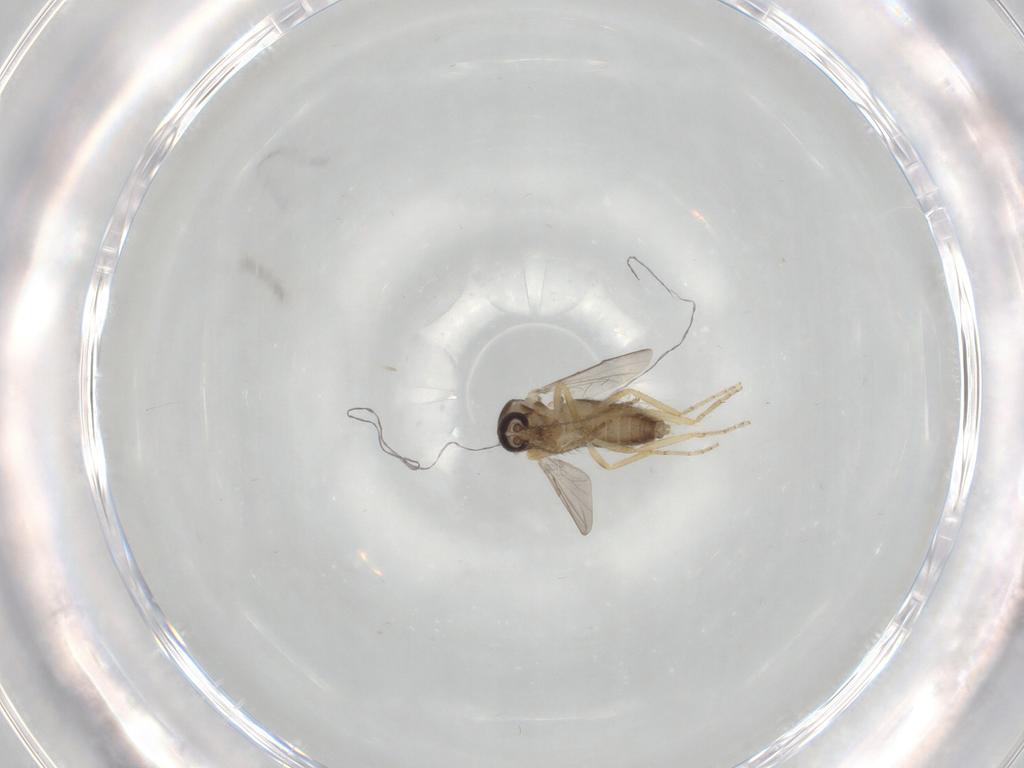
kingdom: Animalia
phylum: Arthropoda
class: Insecta
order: Diptera
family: Ceratopogonidae
